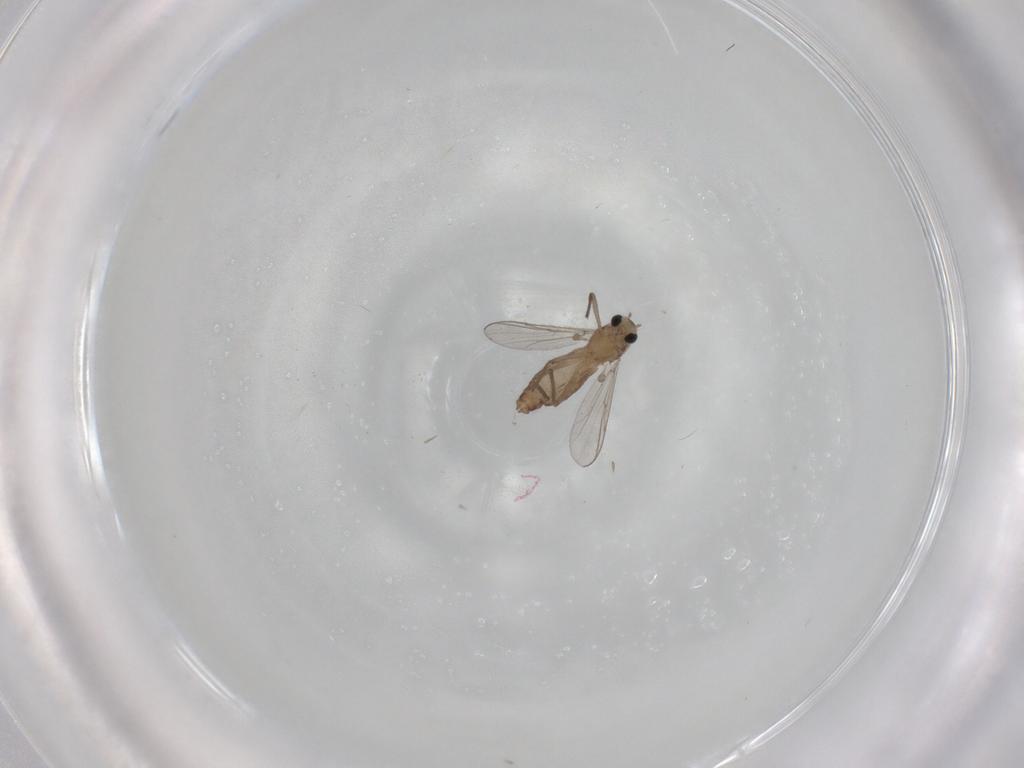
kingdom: Animalia
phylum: Arthropoda
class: Insecta
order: Diptera
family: Chironomidae
